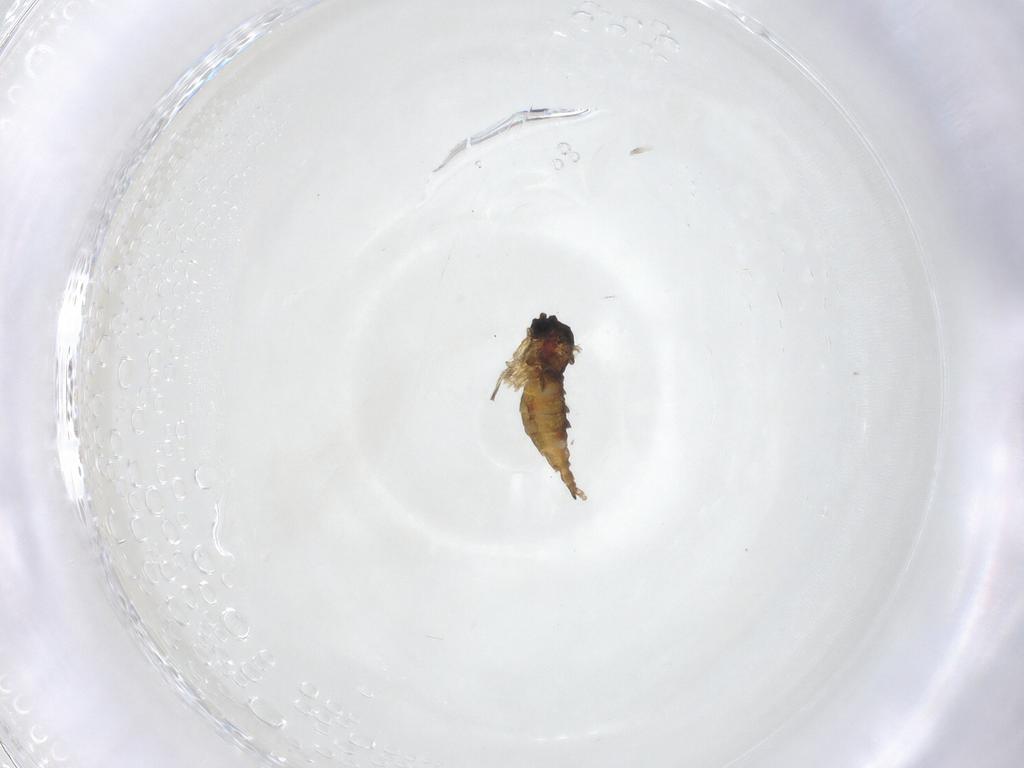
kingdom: Animalia
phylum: Arthropoda
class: Insecta
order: Diptera
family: Sciaridae
